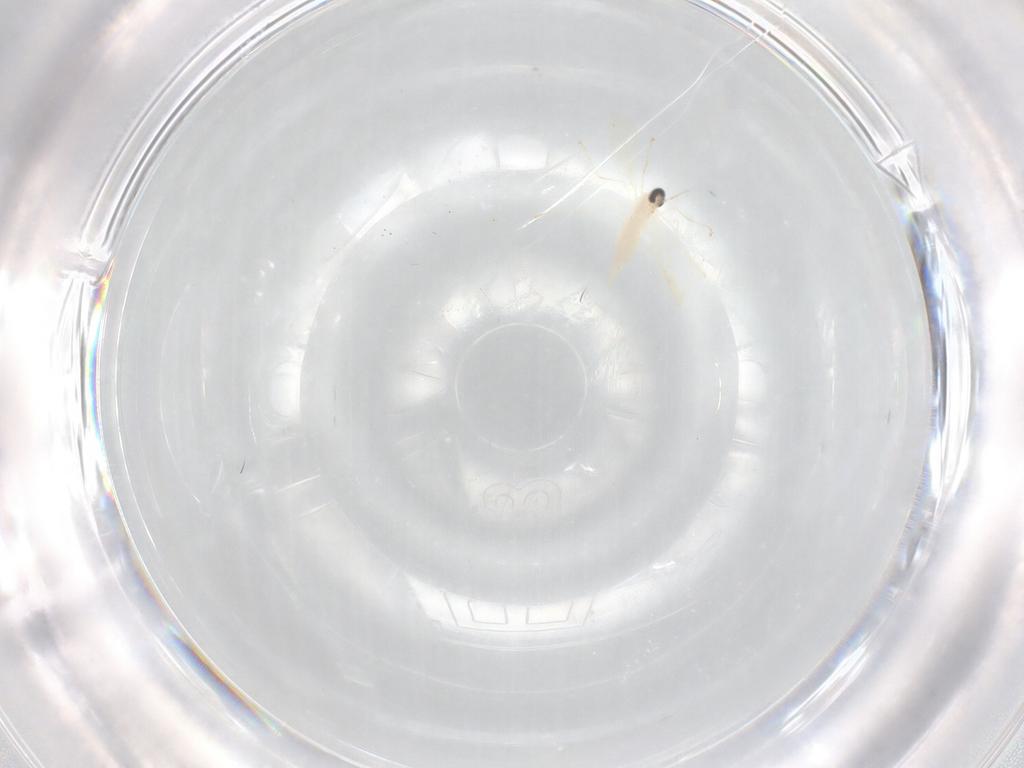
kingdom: Animalia
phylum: Arthropoda
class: Insecta
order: Diptera
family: Cecidomyiidae
